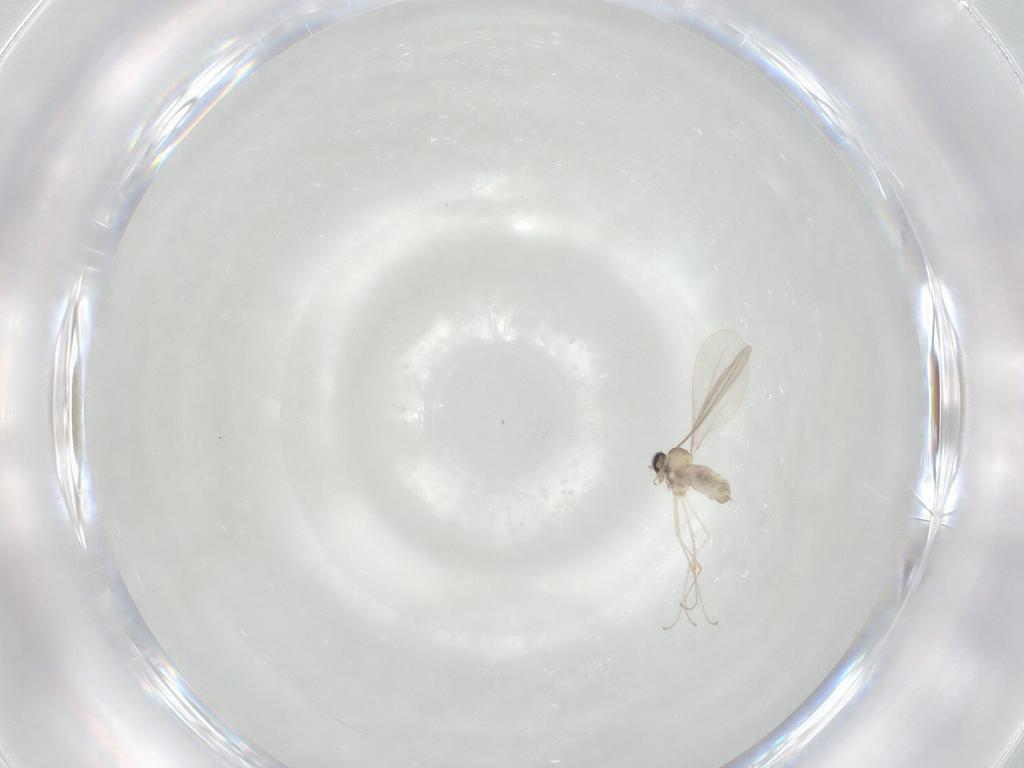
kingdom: Animalia
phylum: Arthropoda
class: Insecta
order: Diptera
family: Cecidomyiidae
